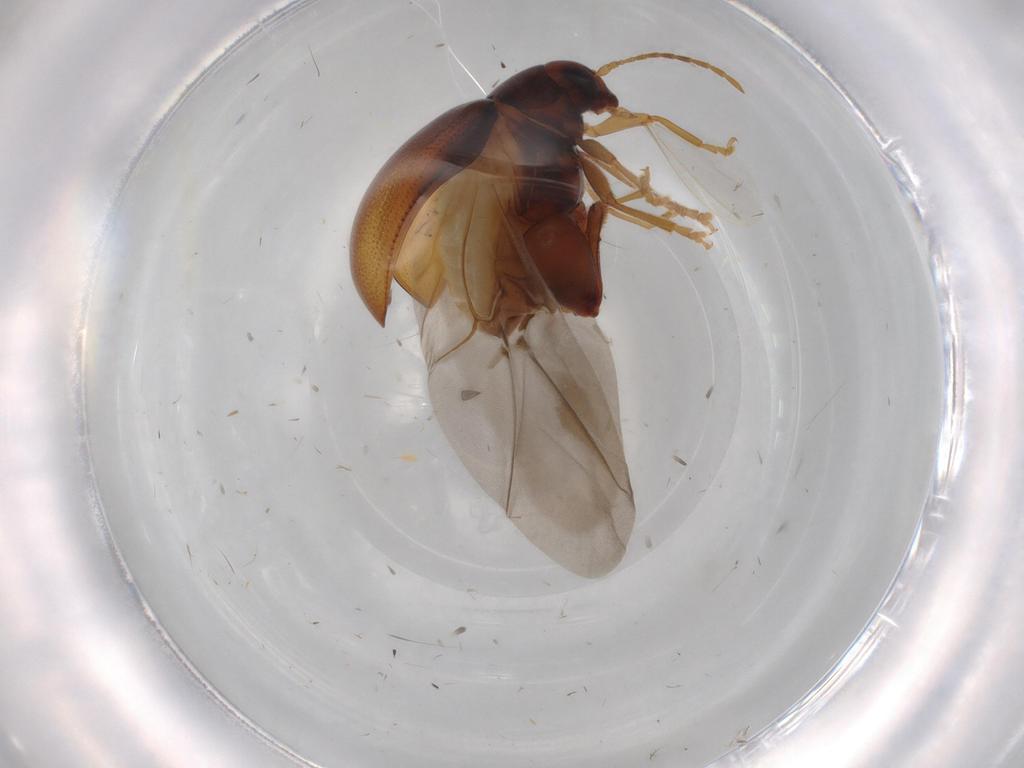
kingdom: Animalia
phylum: Arthropoda
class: Insecta
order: Coleoptera
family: Chrysomelidae
